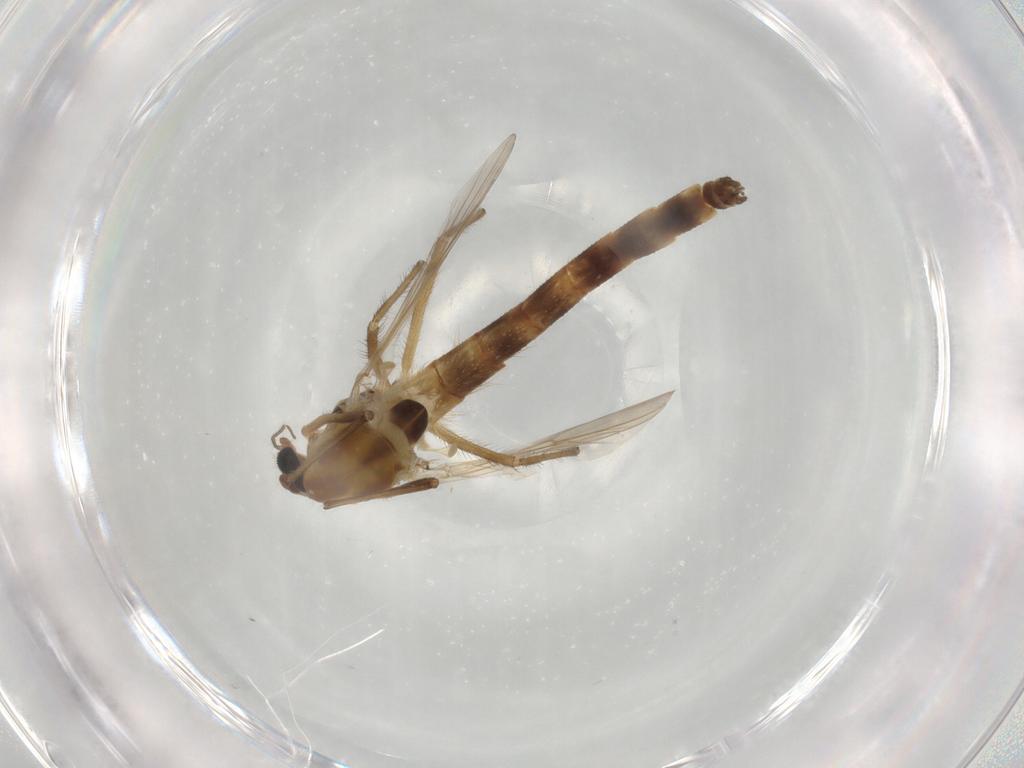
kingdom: Animalia
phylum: Arthropoda
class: Insecta
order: Diptera
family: Chironomidae
